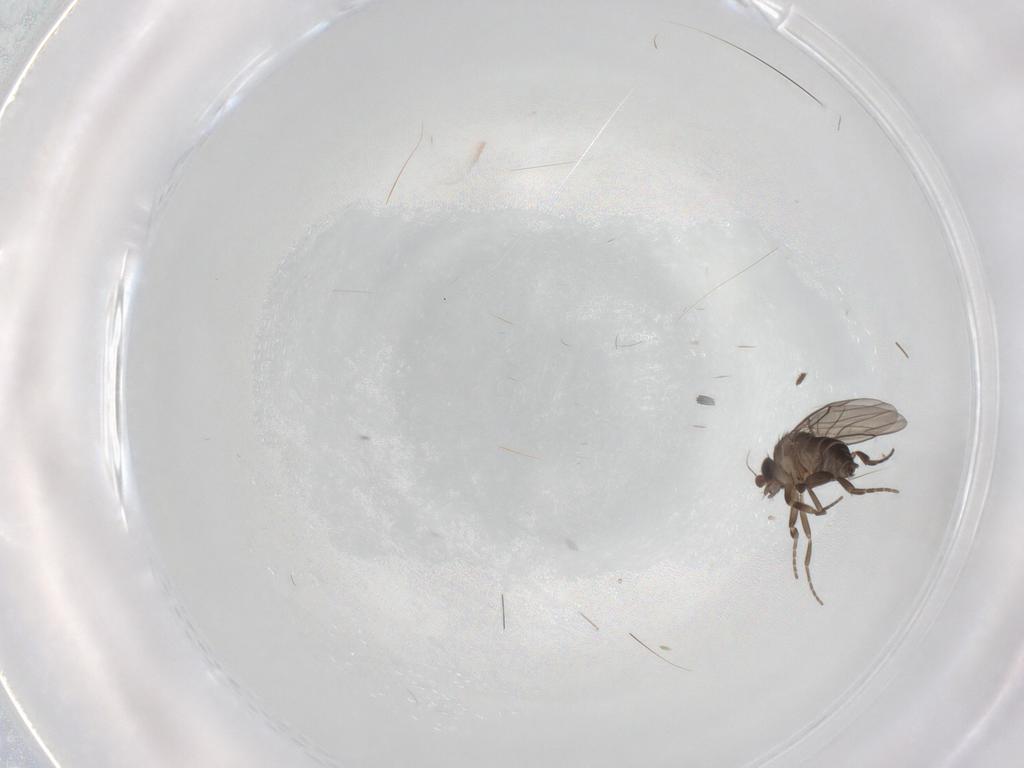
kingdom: Animalia
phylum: Arthropoda
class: Insecta
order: Diptera
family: Phoridae
